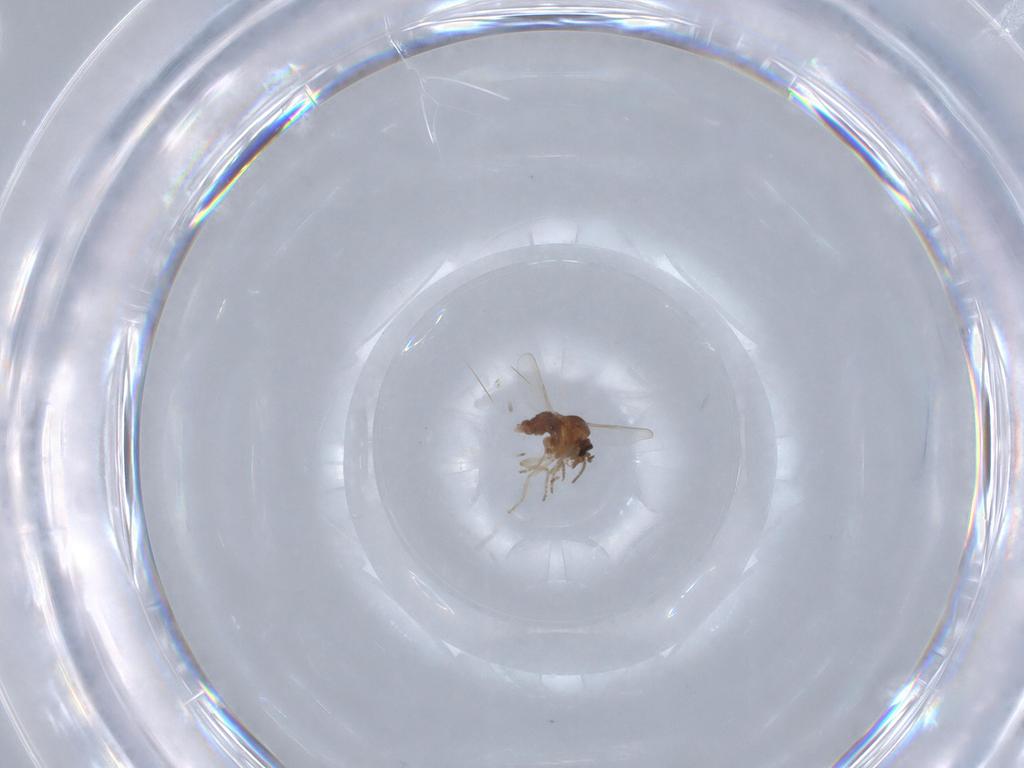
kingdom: Animalia
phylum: Arthropoda
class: Insecta
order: Diptera
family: Ceratopogonidae
